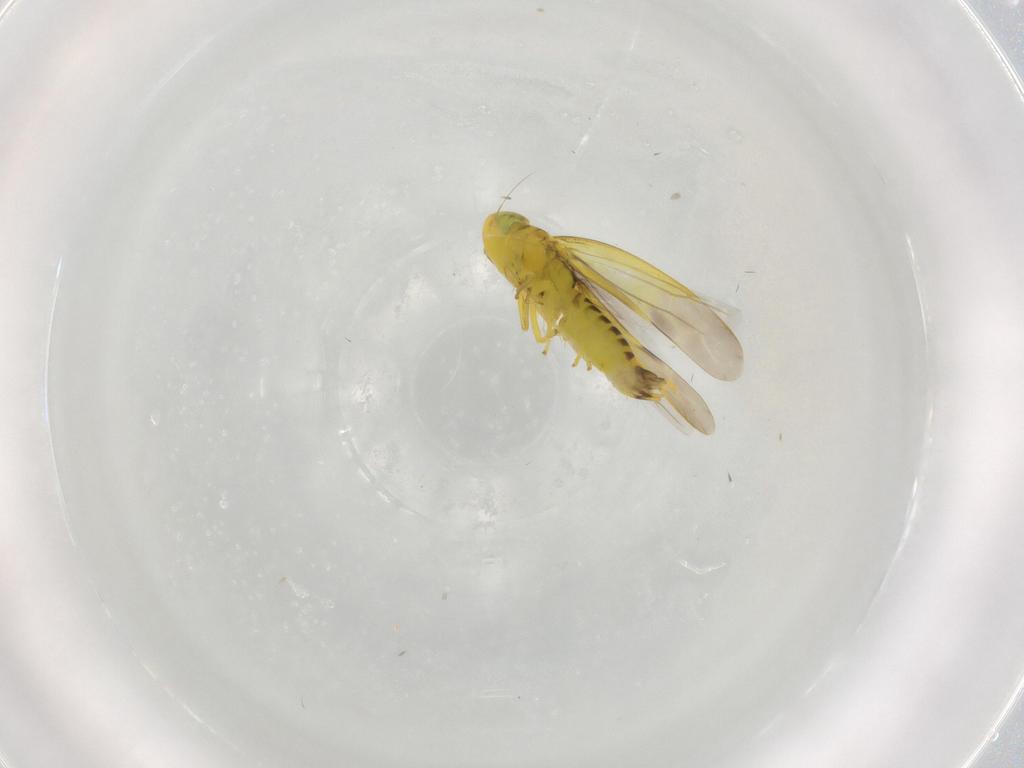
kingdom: Animalia
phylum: Arthropoda
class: Insecta
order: Hemiptera
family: Cicadellidae
